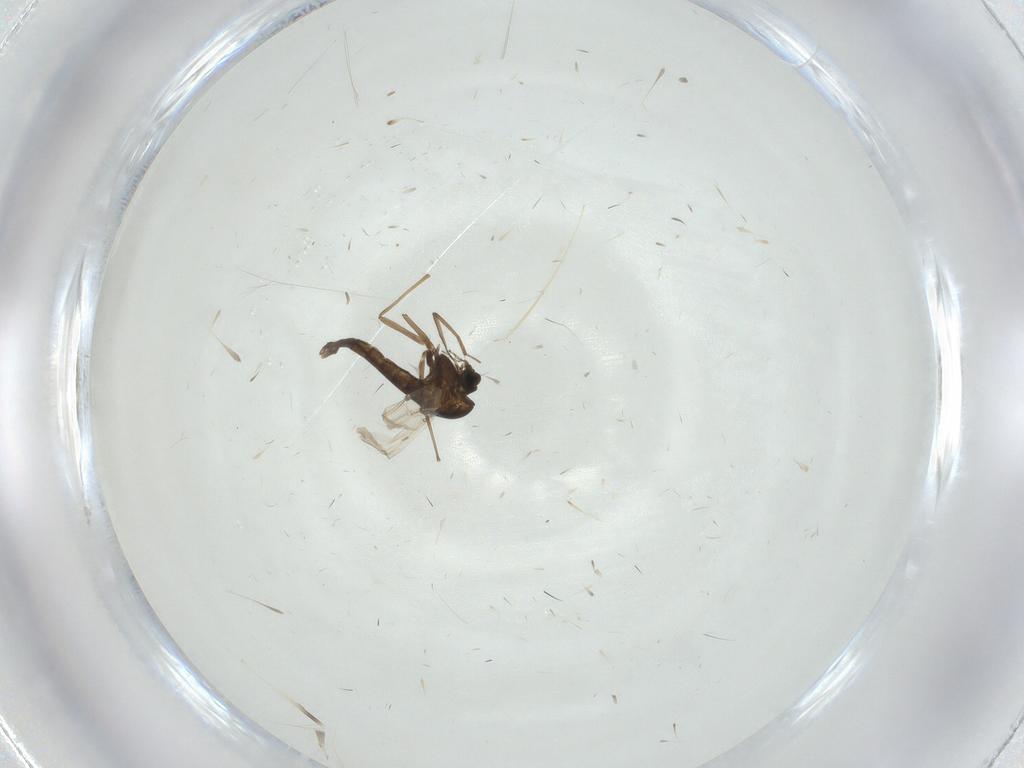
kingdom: Animalia
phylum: Arthropoda
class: Insecta
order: Diptera
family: Chironomidae
